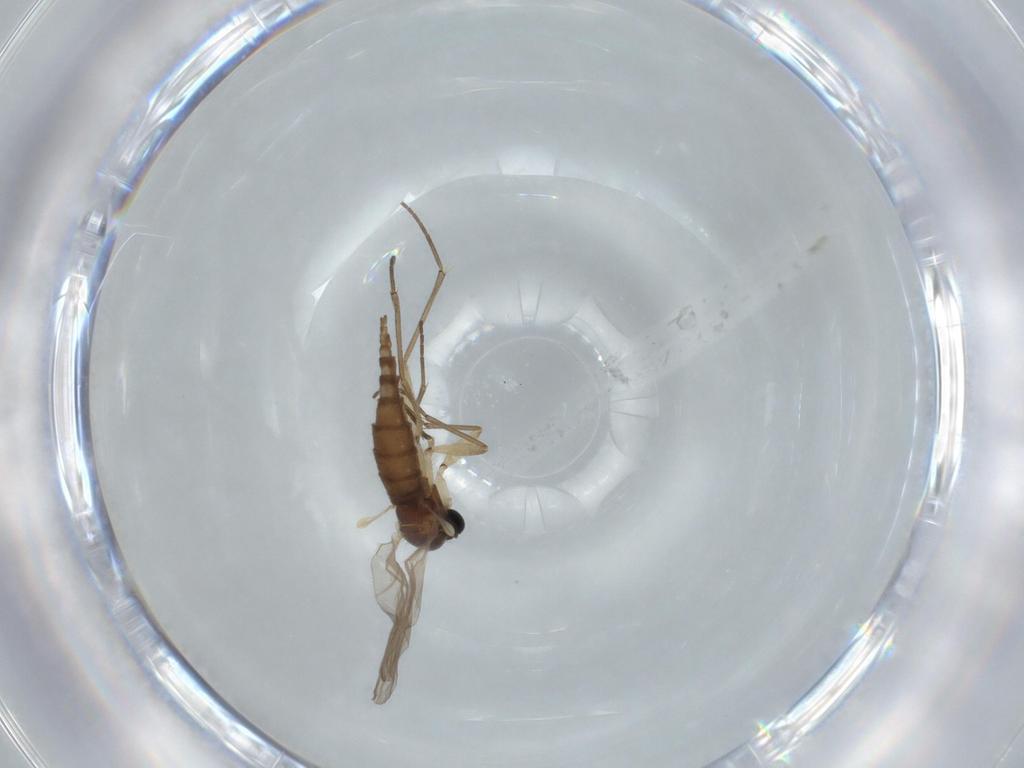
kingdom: Animalia
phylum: Arthropoda
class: Insecta
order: Diptera
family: Sciaridae
